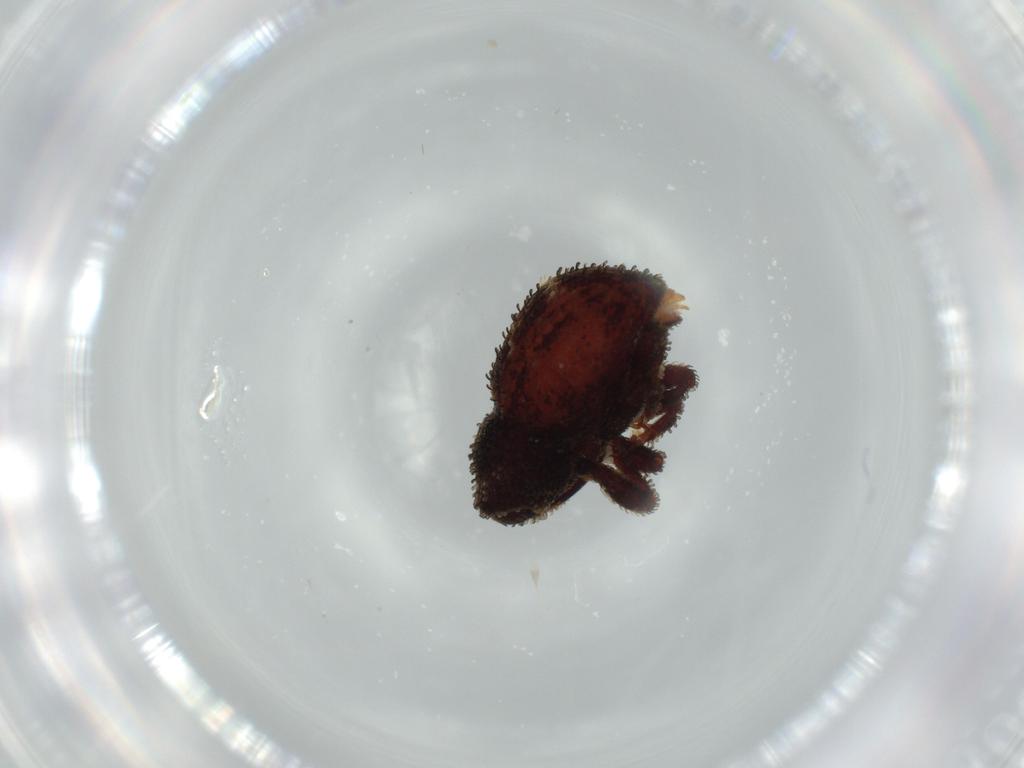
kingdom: Animalia
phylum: Arthropoda
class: Insecta
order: Coleoptera
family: Curculionidae
